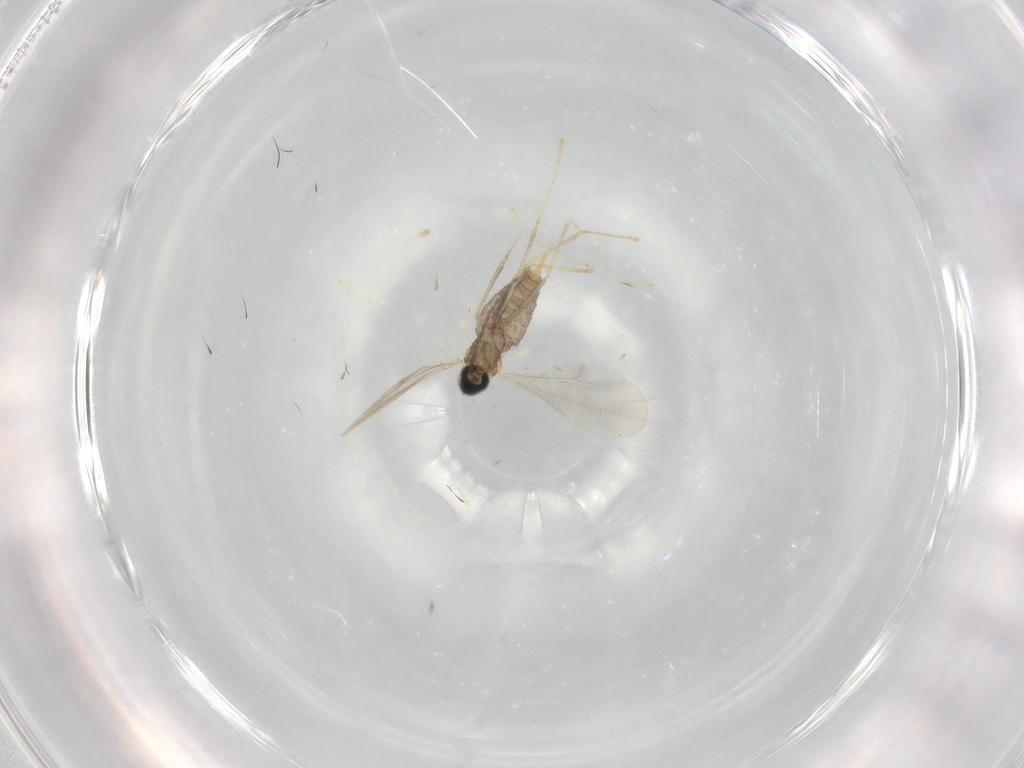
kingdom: Animalia
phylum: Arthropoda
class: Insecta
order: Diptera
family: Cecidomyiidae
